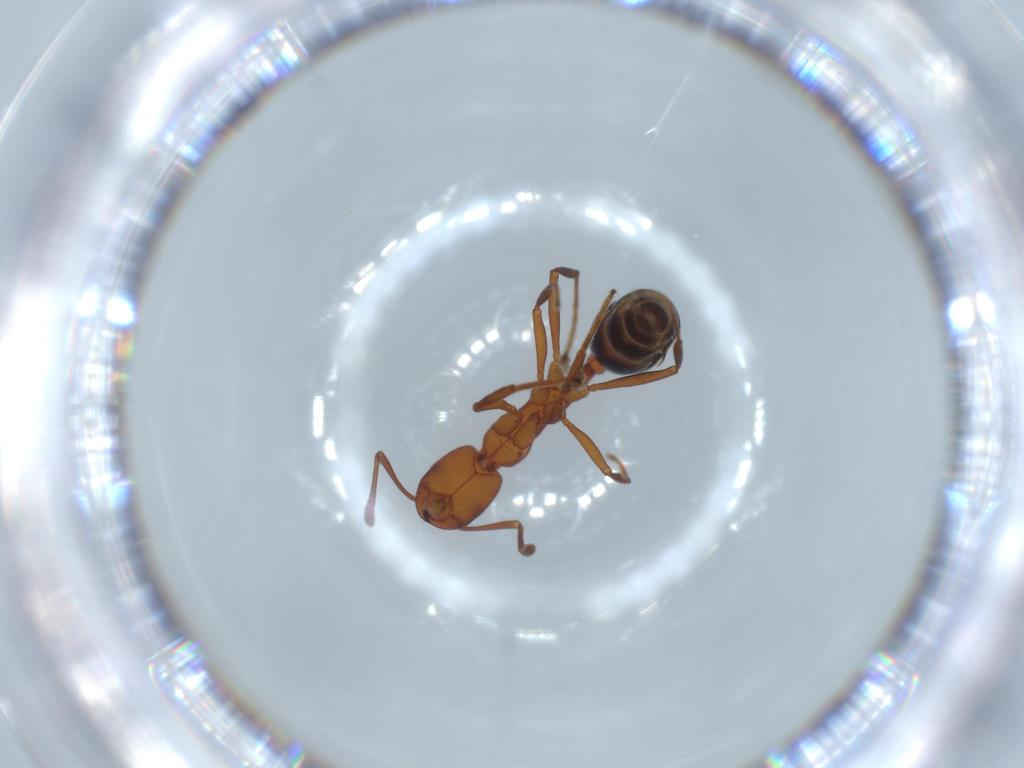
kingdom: Animalia
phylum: Arthropoda
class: Insecta
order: Hymenoptera
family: Formicidae
